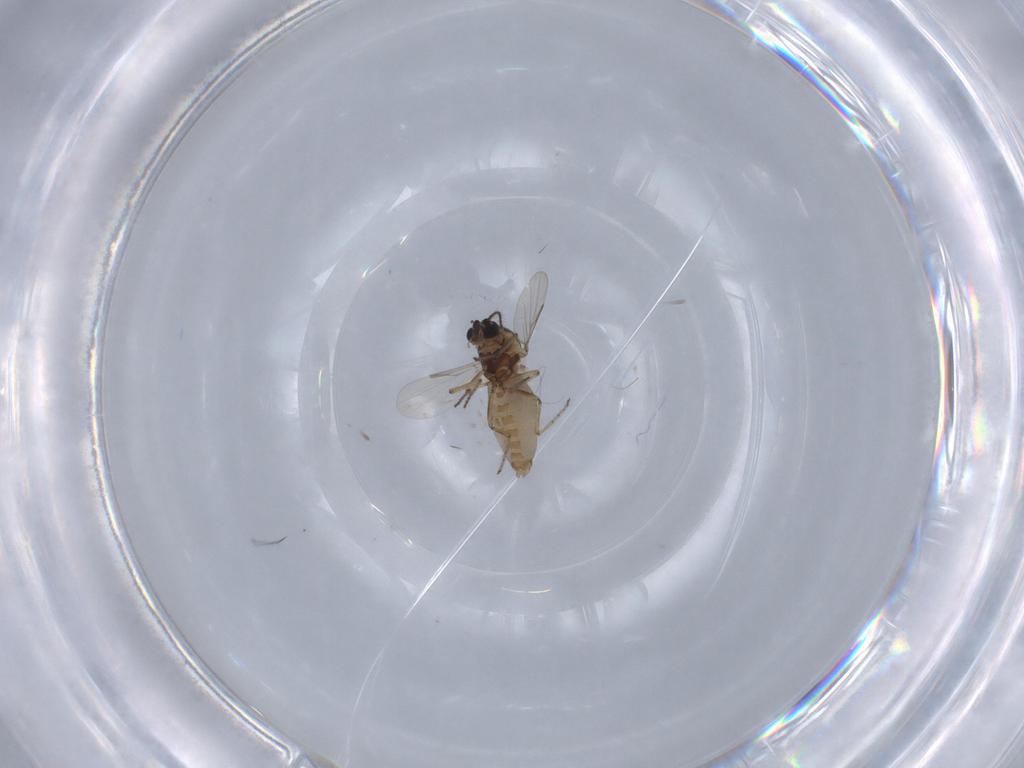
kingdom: Animalia
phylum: Arthropoda
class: Insecta
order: Diptera
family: Ceratopogonidae
